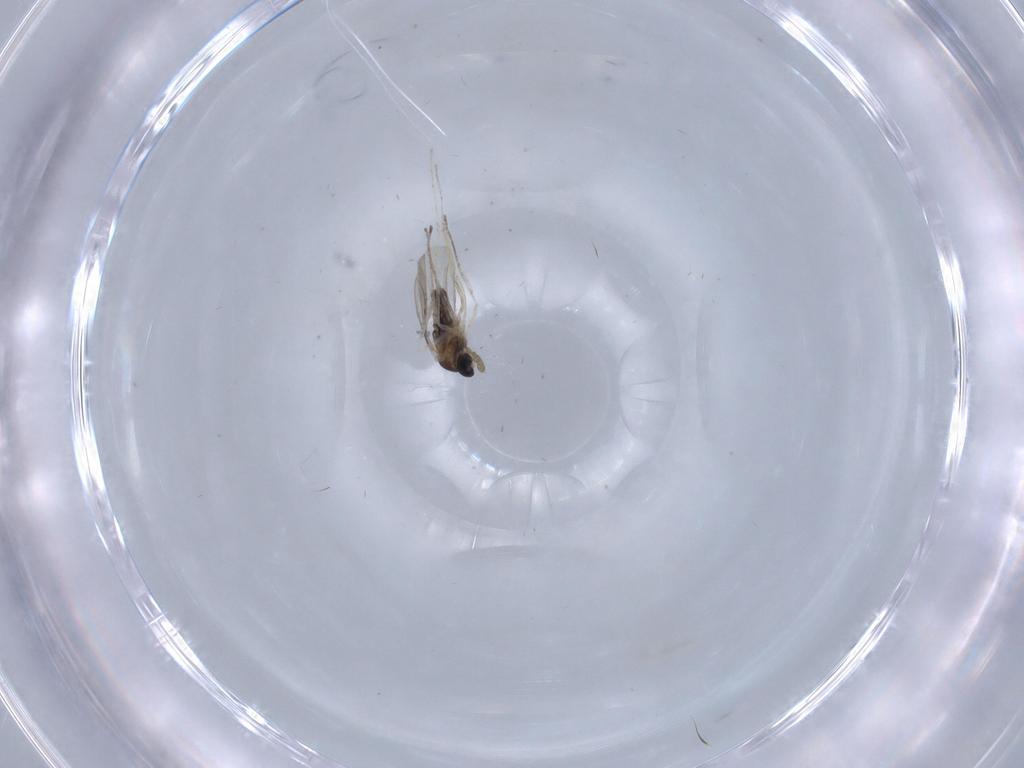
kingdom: Animalia
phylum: Arthropoda
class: Insecta
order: Diptera
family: Cecidomyiidae
